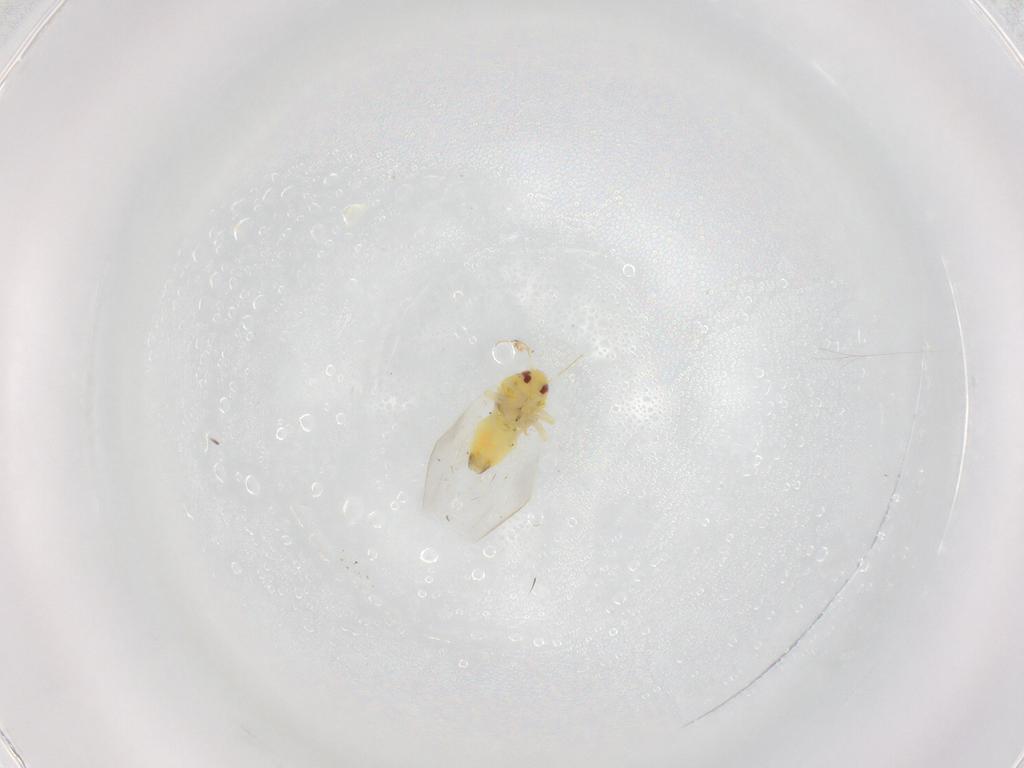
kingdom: Animalia
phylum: Arthropoda
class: Insecta
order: Hemiptera
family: Aleyrodidae
